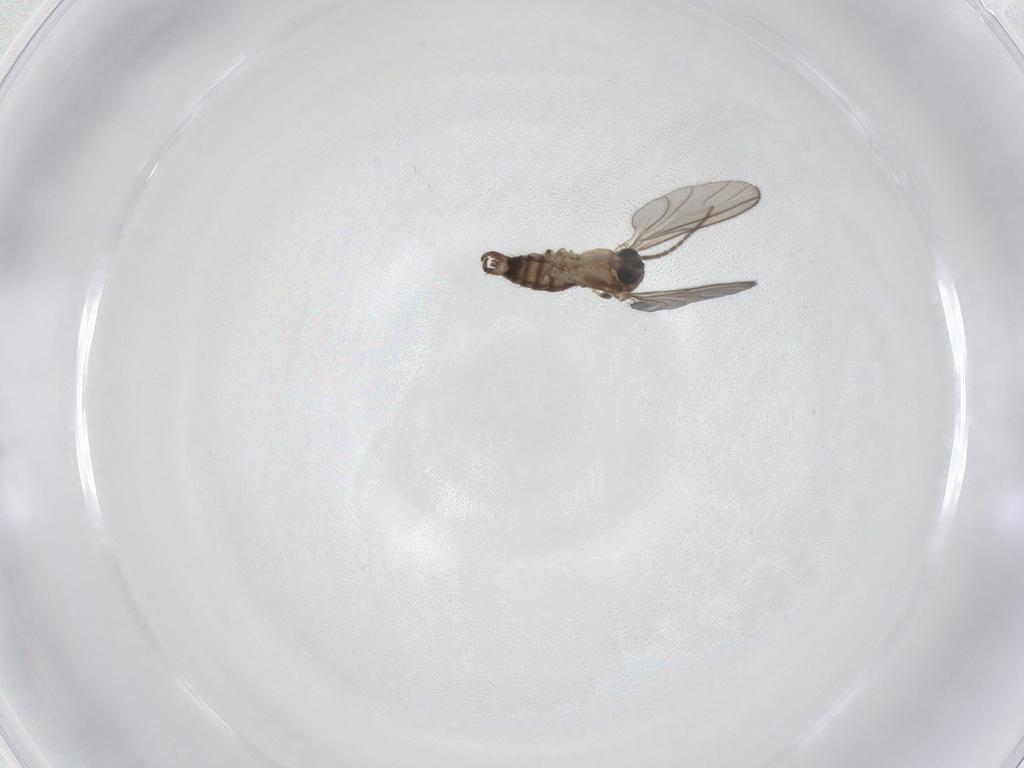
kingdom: Animalia
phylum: Arthropoda
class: Insecta
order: Diptera
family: Sciaridae
